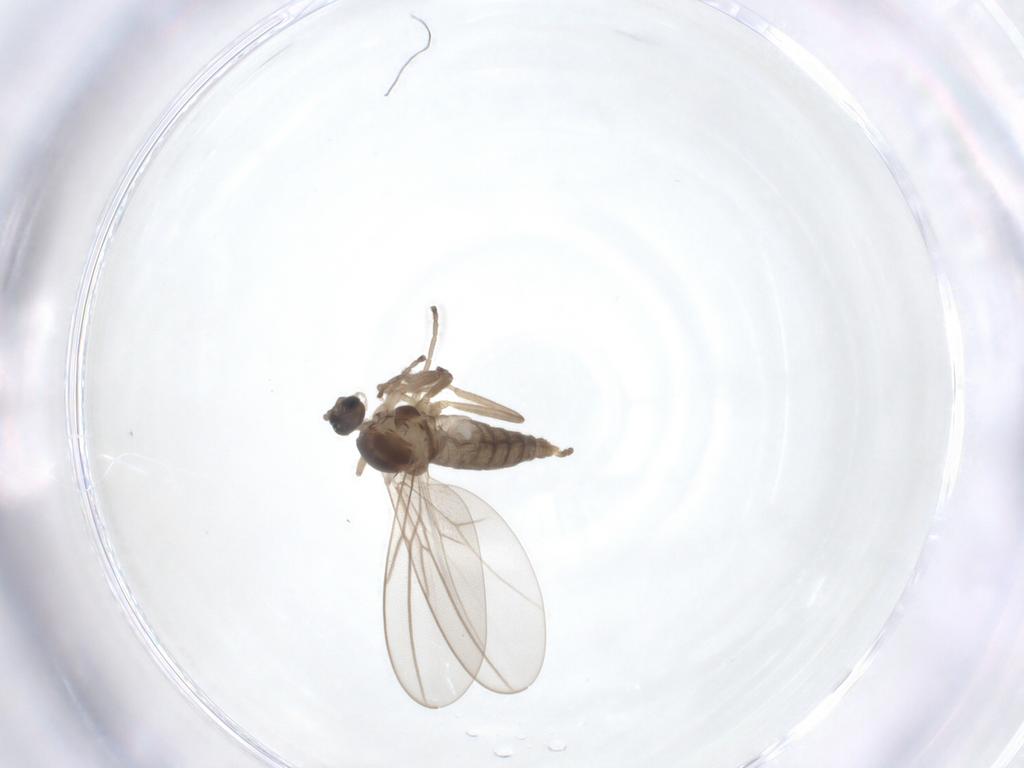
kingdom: Animalia
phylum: Arthropoda
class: Insecta
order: Diptera
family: Cecidomyiidae
